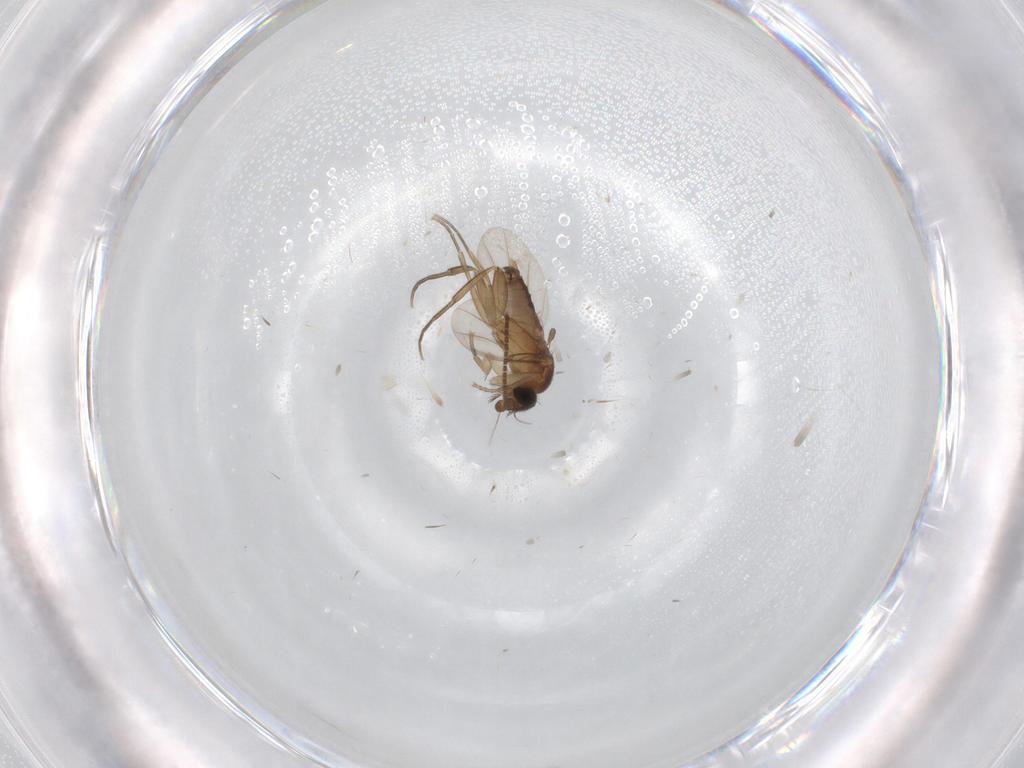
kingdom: Animalia
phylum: Arthropoda
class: Insecta
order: Diptera
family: Phoridae
